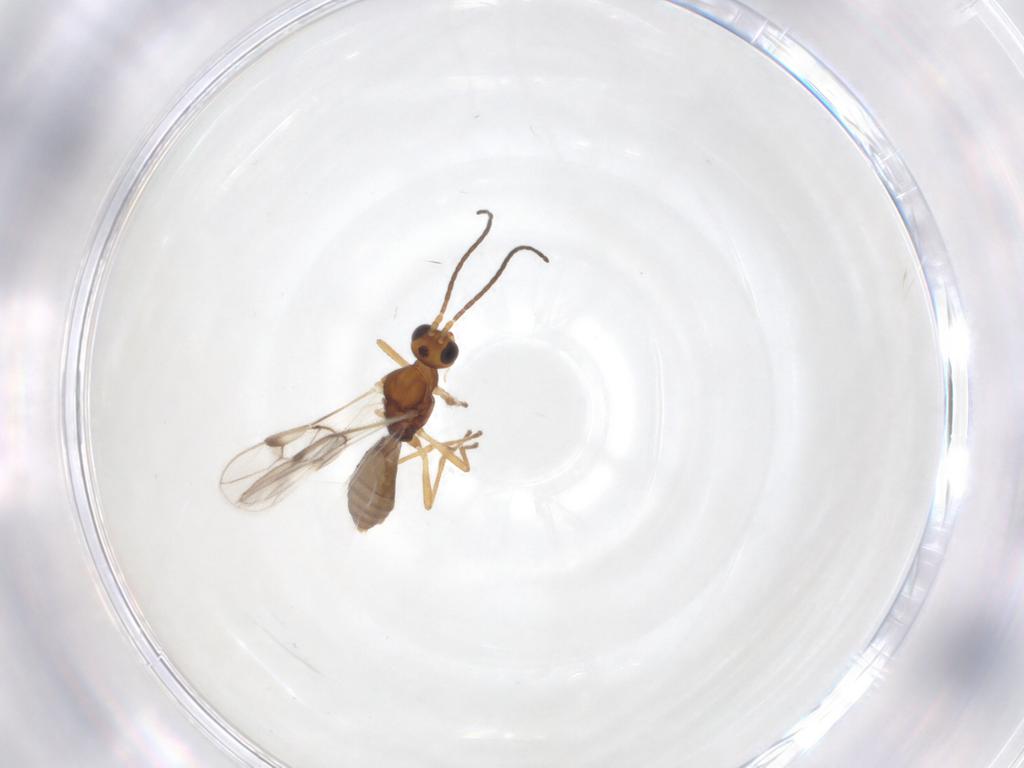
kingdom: Animalia
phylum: Arthropoda
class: Insecta
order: Hymenoptera
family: Braconidae
